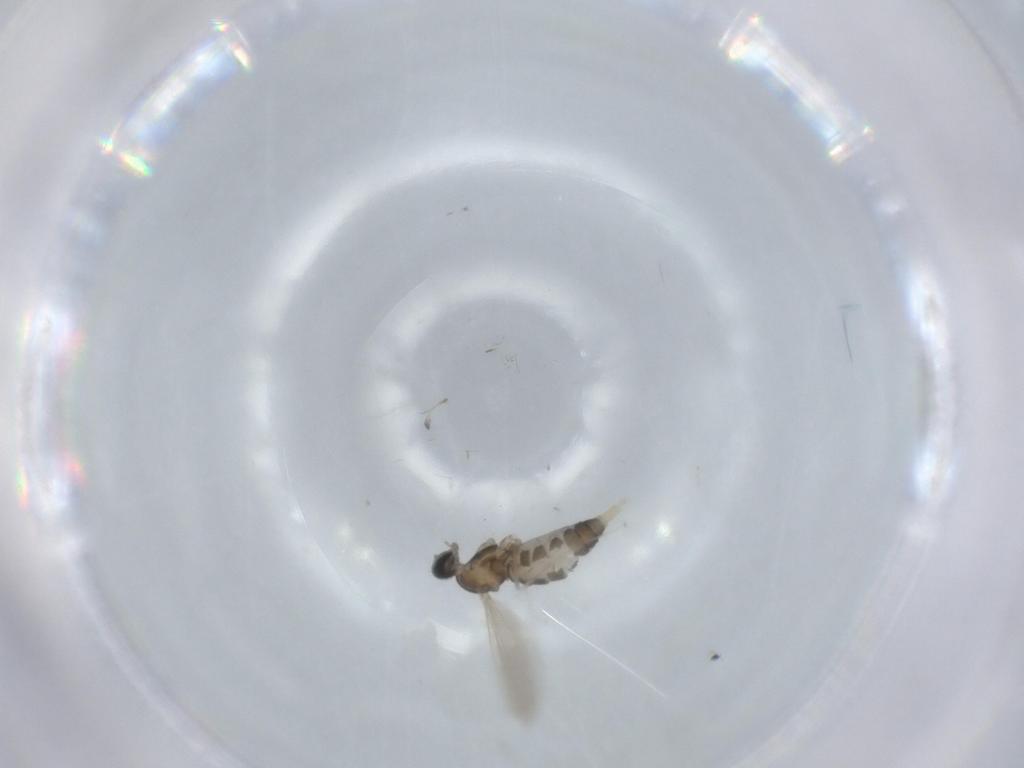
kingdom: Animalia
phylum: Arthropoda
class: Insecta
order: Diptera
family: Cecidomyiidae
